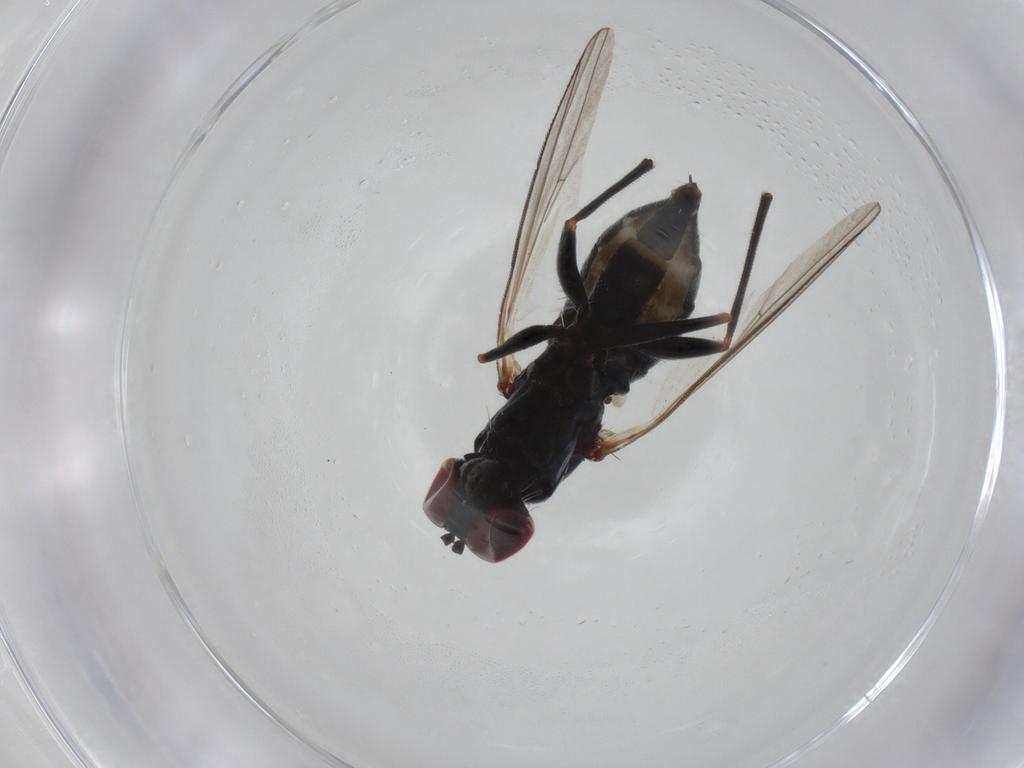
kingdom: Animalia
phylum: Arthropoda
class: Insecta
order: Diptera
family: Dolichopodidae
